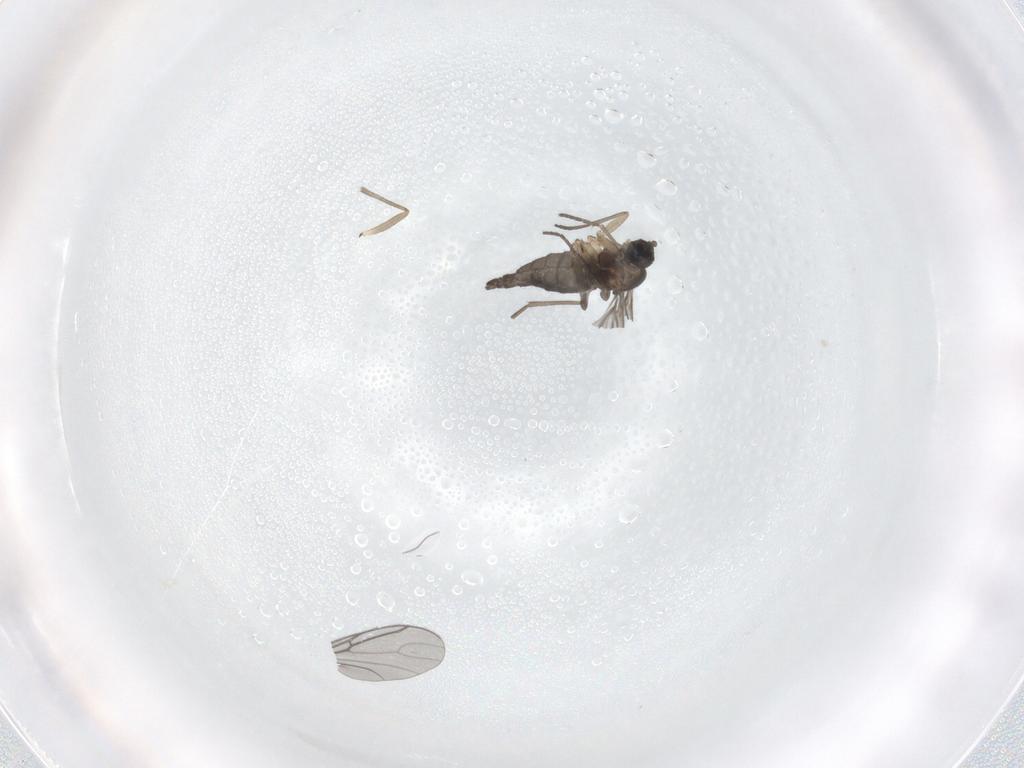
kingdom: Animalia
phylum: Arthropoda
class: Insecta
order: Diptera
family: Sciaridae
